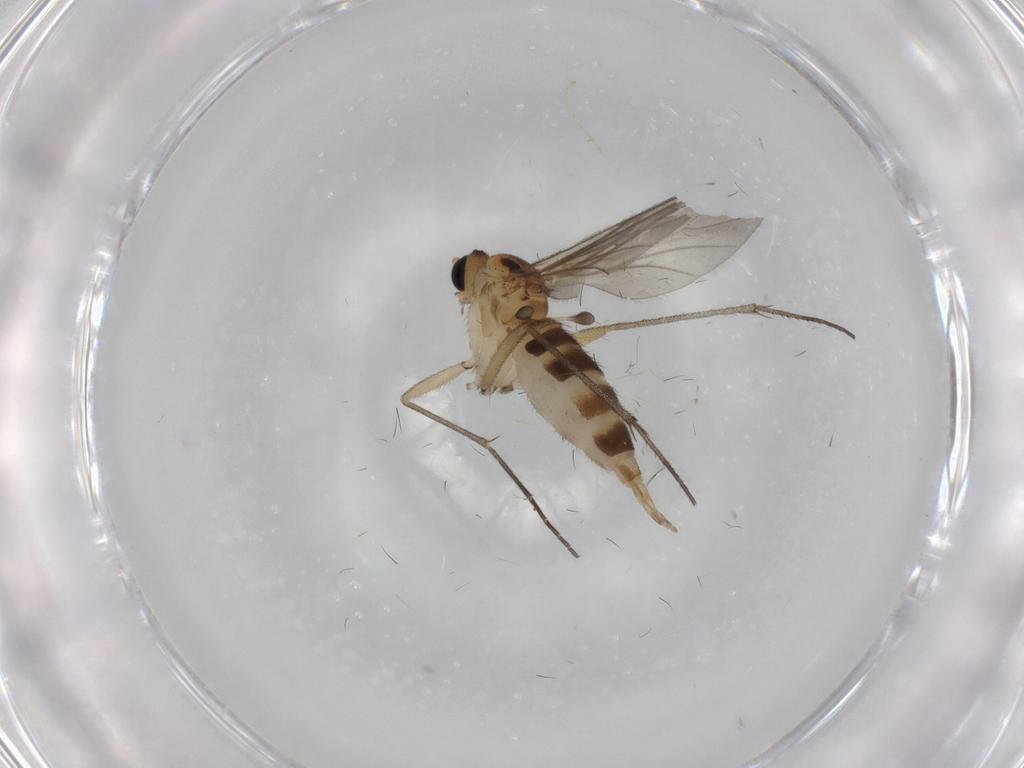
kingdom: Animalia
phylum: Arthropoda
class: Insecta
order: Diptera
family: Sciaridae
